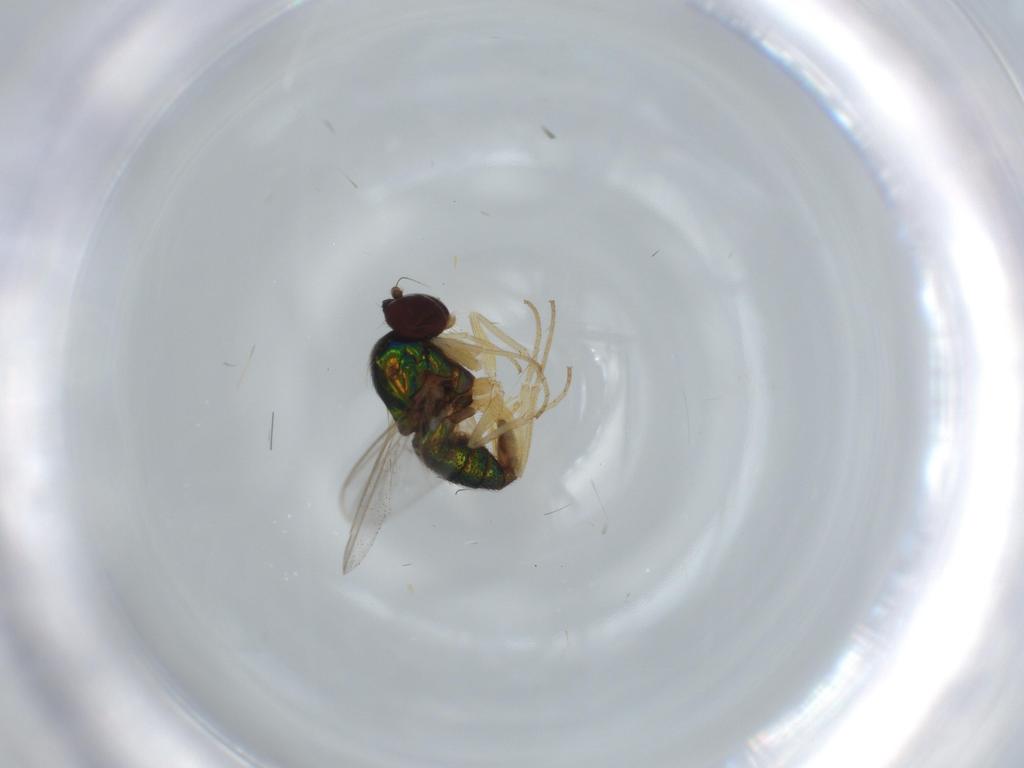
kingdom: Animalia
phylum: Arthropoda
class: Insecta
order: Diptera
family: Dolichopodidae
